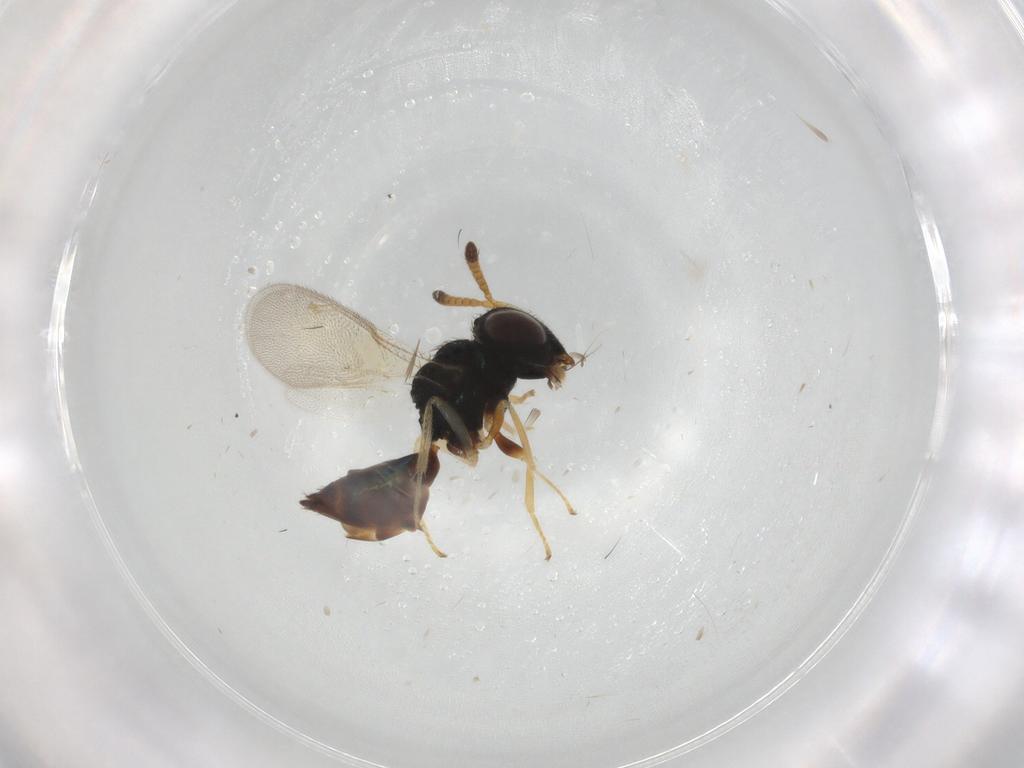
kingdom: Animalia
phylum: Arthropoda
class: Insecta
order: Hymenoptera
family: Pteromalidae
